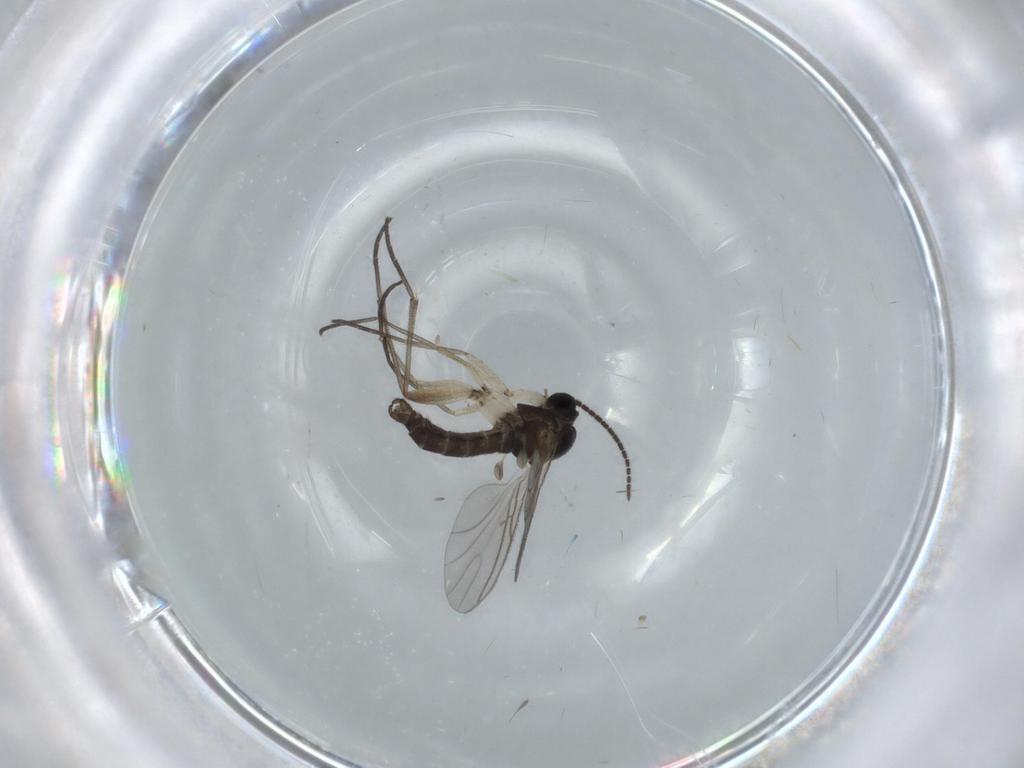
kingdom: Animalia
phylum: Arthropoda
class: Insecta
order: Diptera
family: Sciaridae
